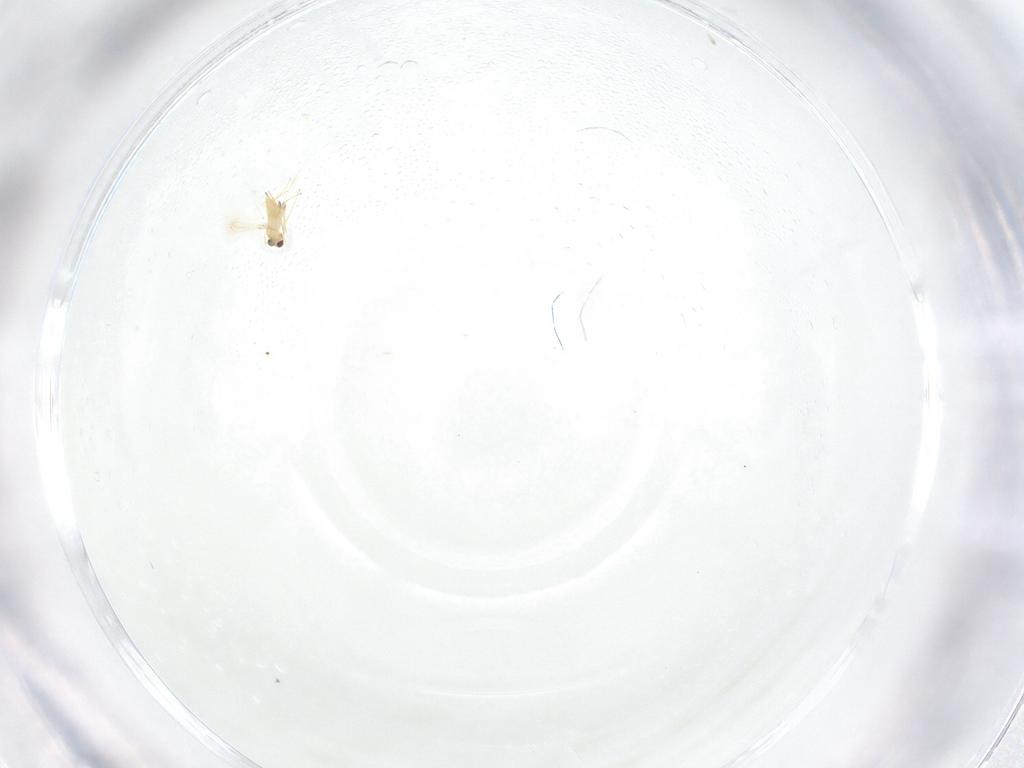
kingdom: Animalia
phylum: Arthropoda
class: Insecta
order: Hymenoptera
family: Mymaridae
